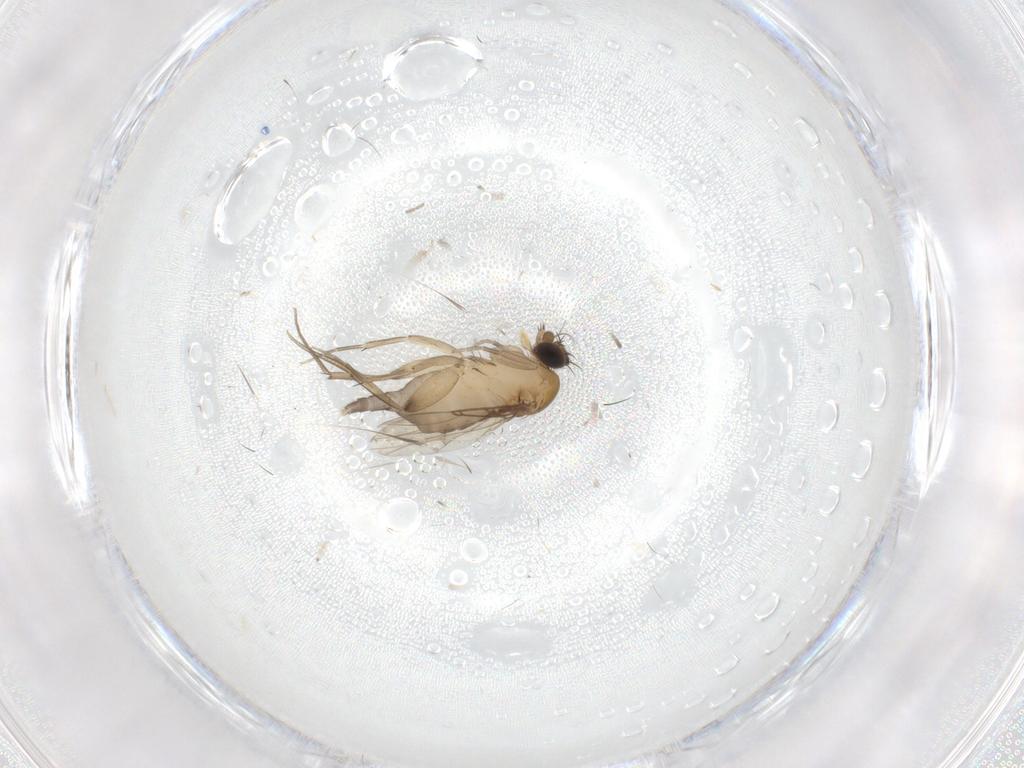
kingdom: Animalia
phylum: Arthropoda
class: Insecta
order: Diptera
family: Phoridae
